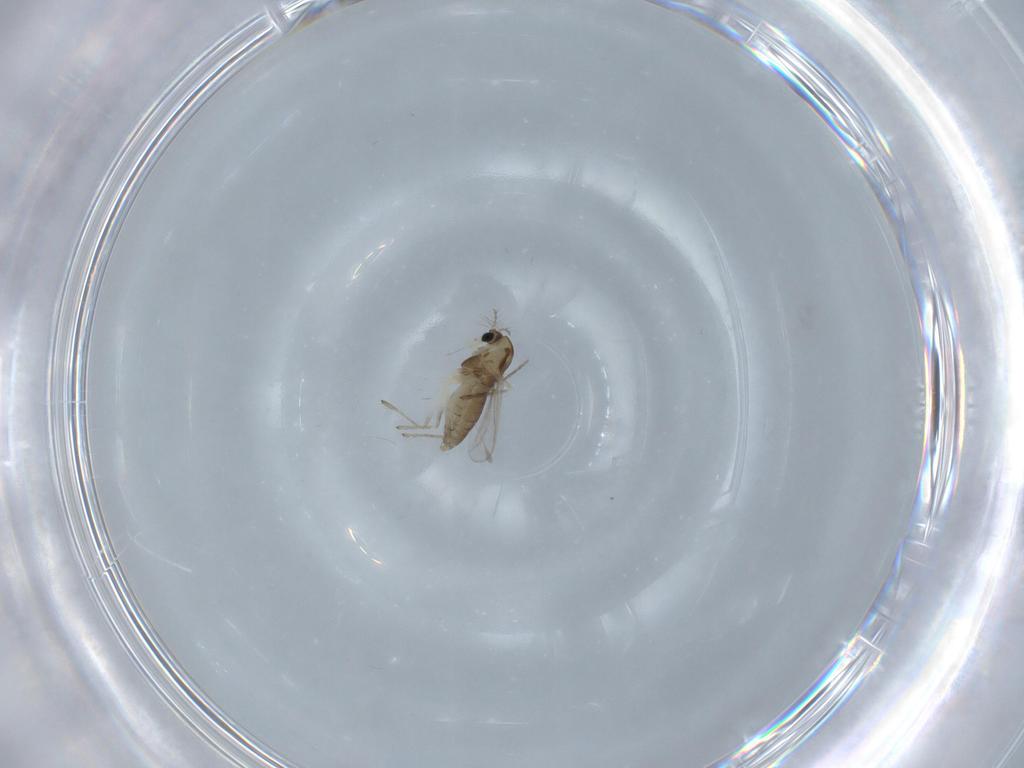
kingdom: Animalia
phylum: Arthropoda
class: Insecta
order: Diptera
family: Chironomidae
